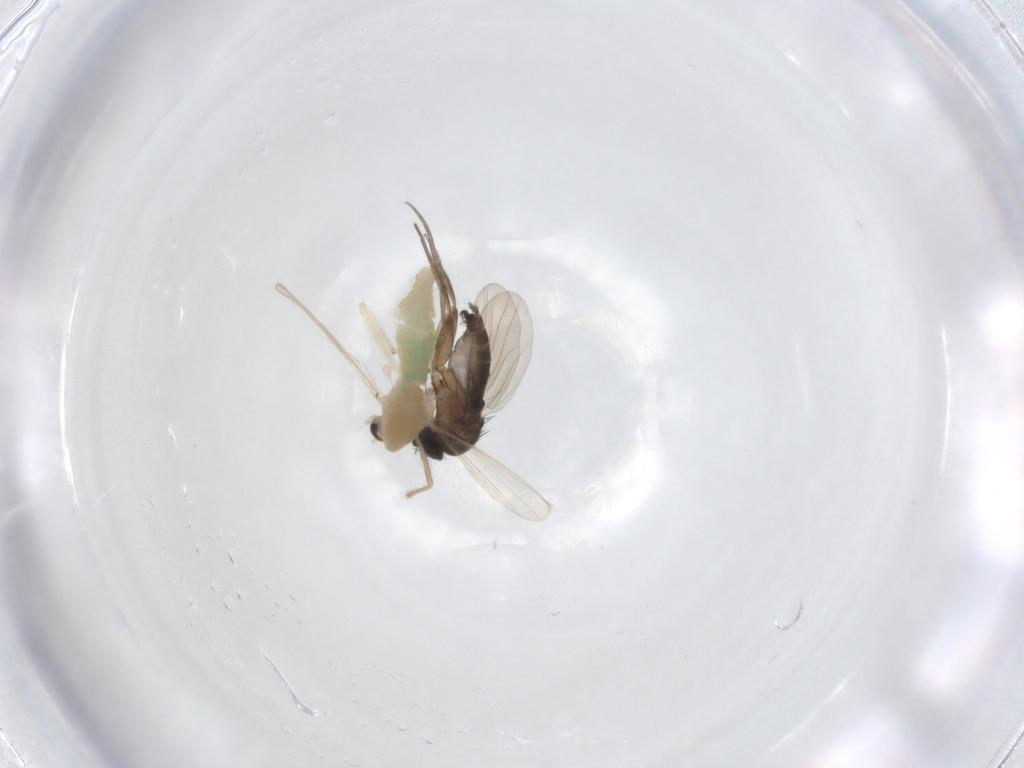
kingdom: Animalia
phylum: Arthropoda
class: Insecta
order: Diptera
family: Chironomidae
